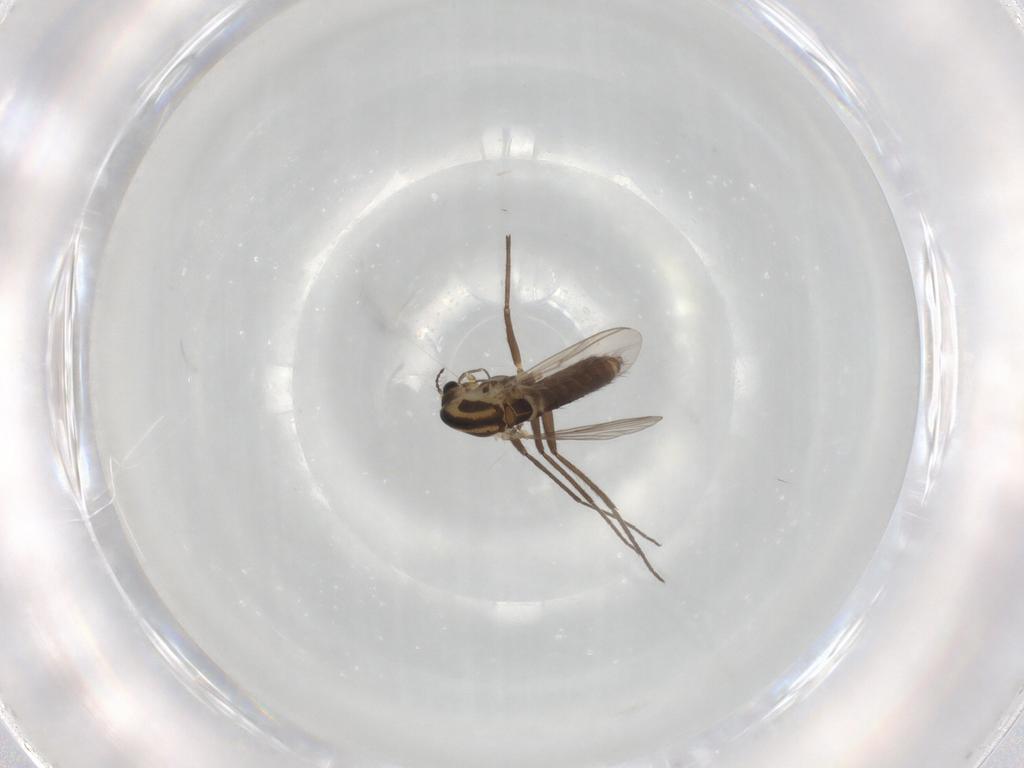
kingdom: Animalia
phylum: Arthropoda
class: Insecta
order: Diptera
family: Chironomidae
